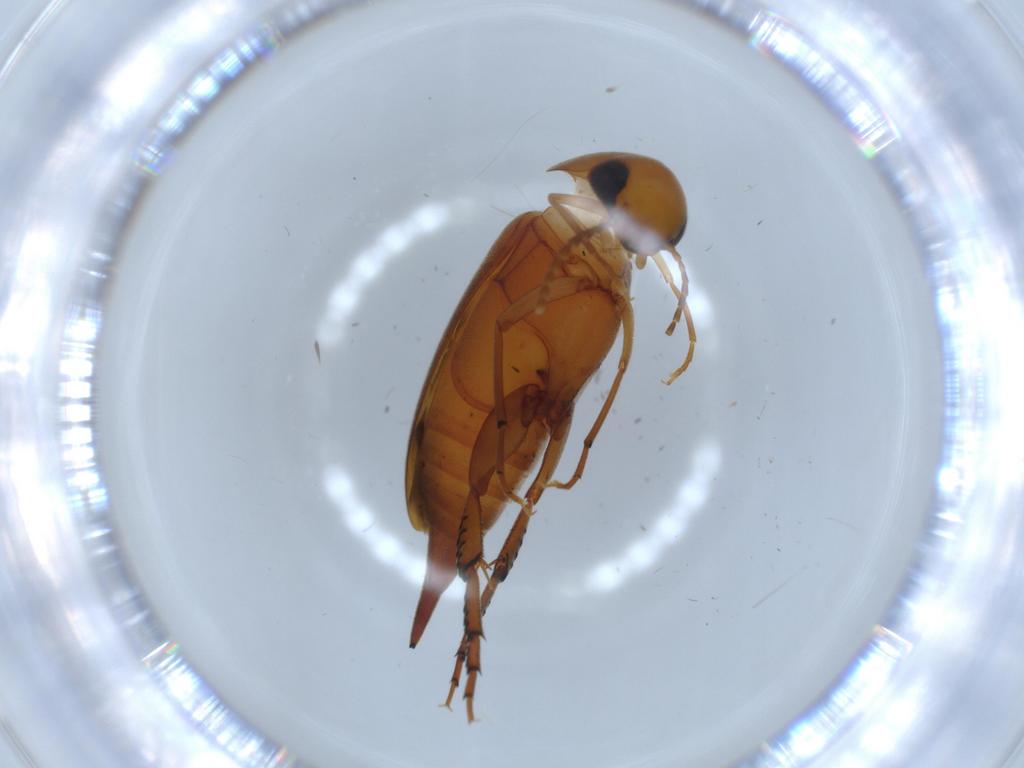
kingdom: Animalia
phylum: Arthropoda
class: Insecta
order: Coleoptera
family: Mordellidae
